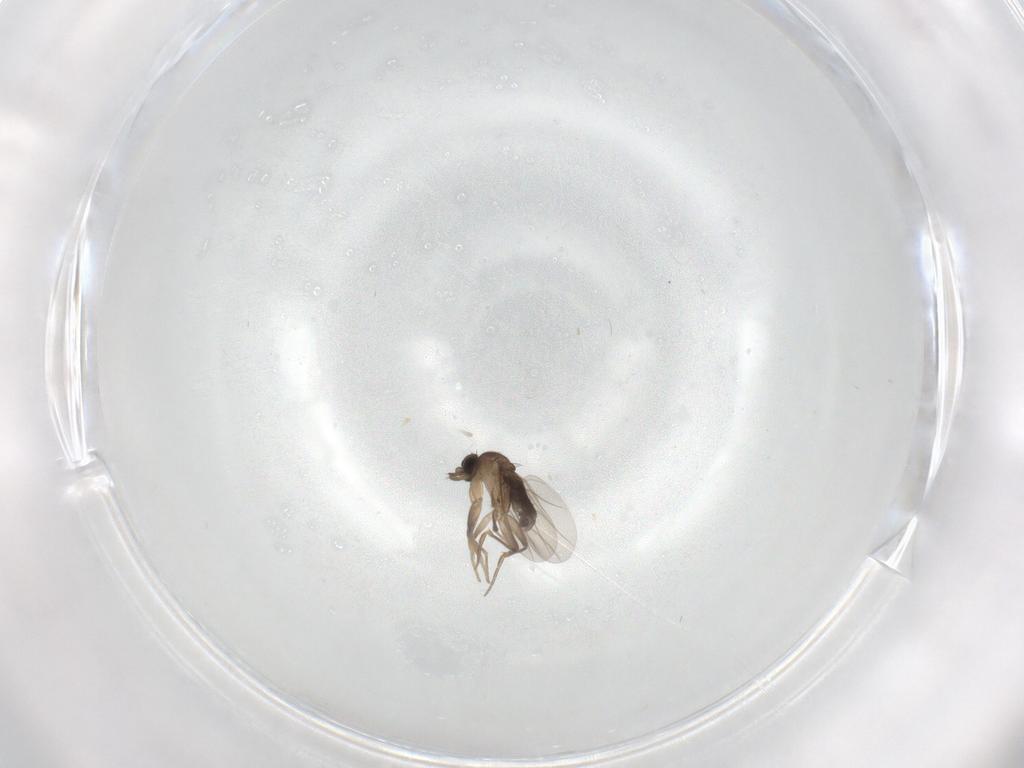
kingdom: Animalia
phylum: Arthropoda
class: Insecta
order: Diptera
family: Phoridae
